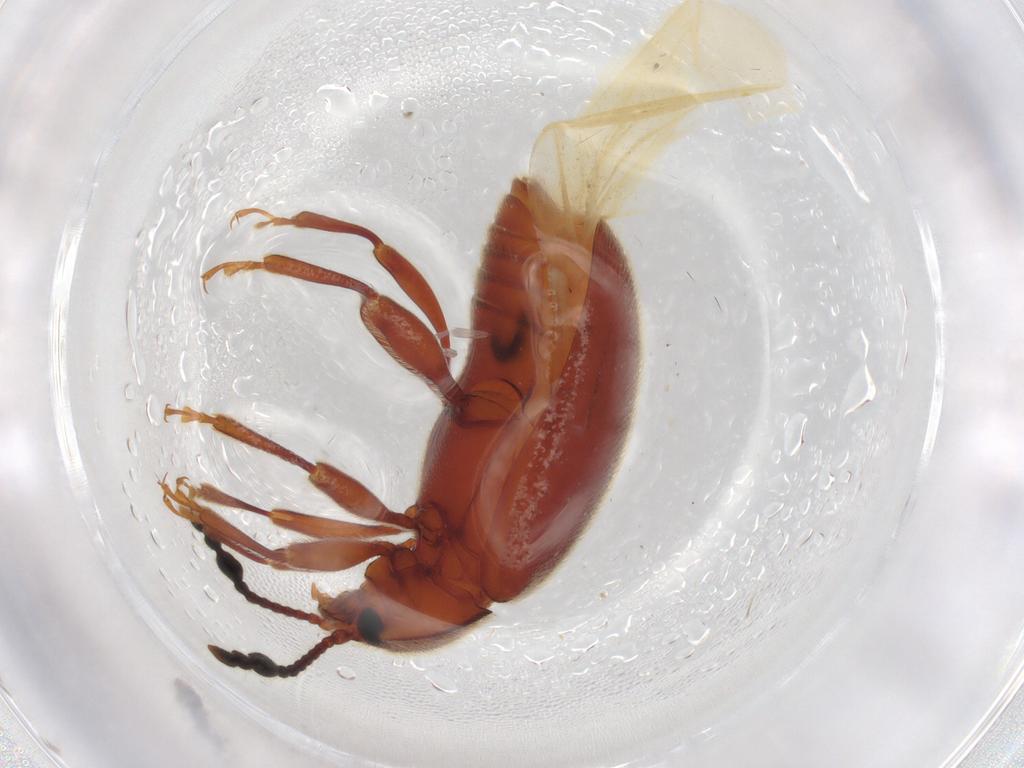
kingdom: Animalia
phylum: Arthropoda
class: Insecta
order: Coleoptera
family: Endomychidae
